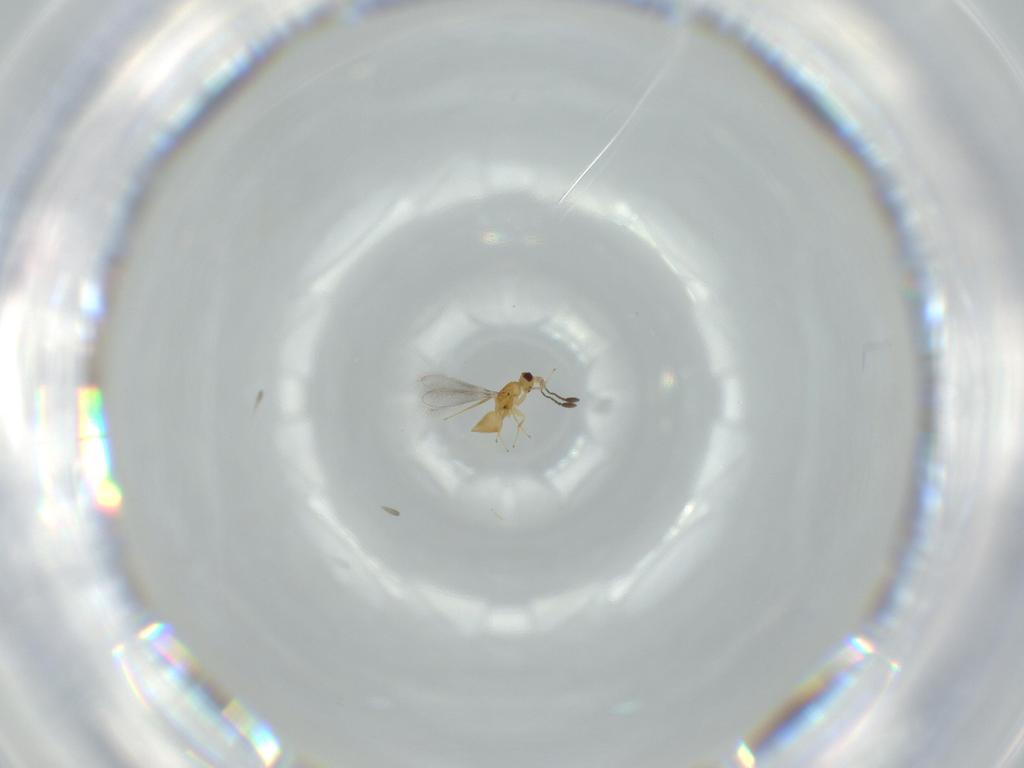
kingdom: Animalia
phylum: Arthropoda
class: Insecta
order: Hymenoptera
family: Mymaridae
